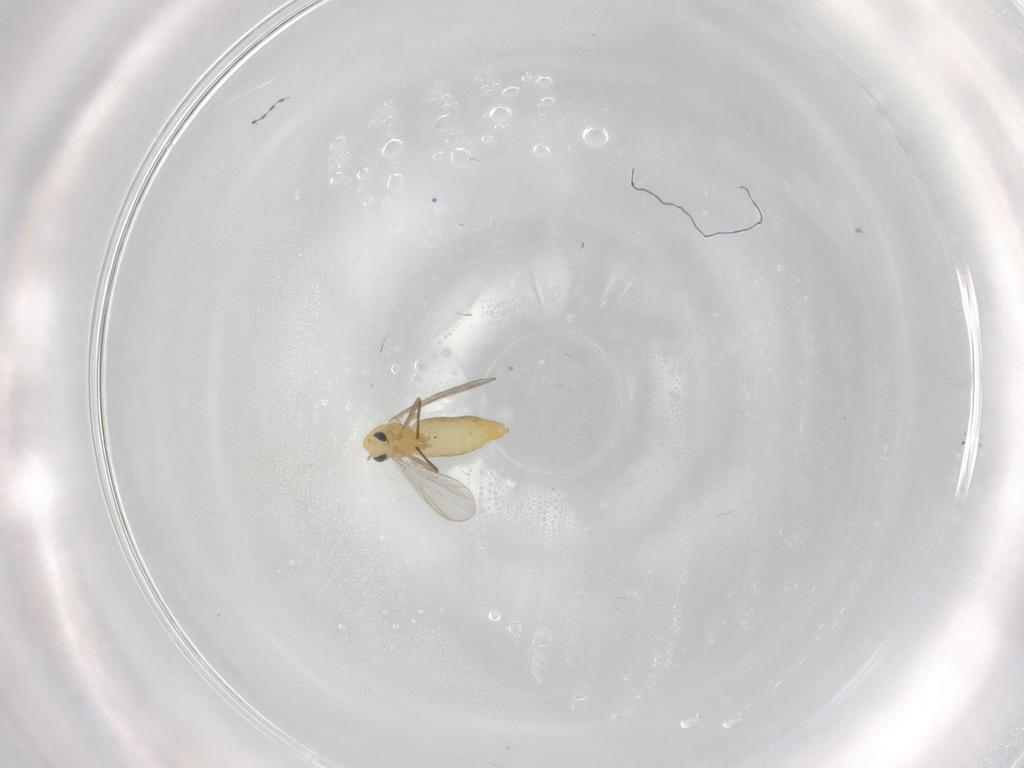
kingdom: Animalia
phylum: Arthropoda
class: Insecta
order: Diptera
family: Chironomidae
